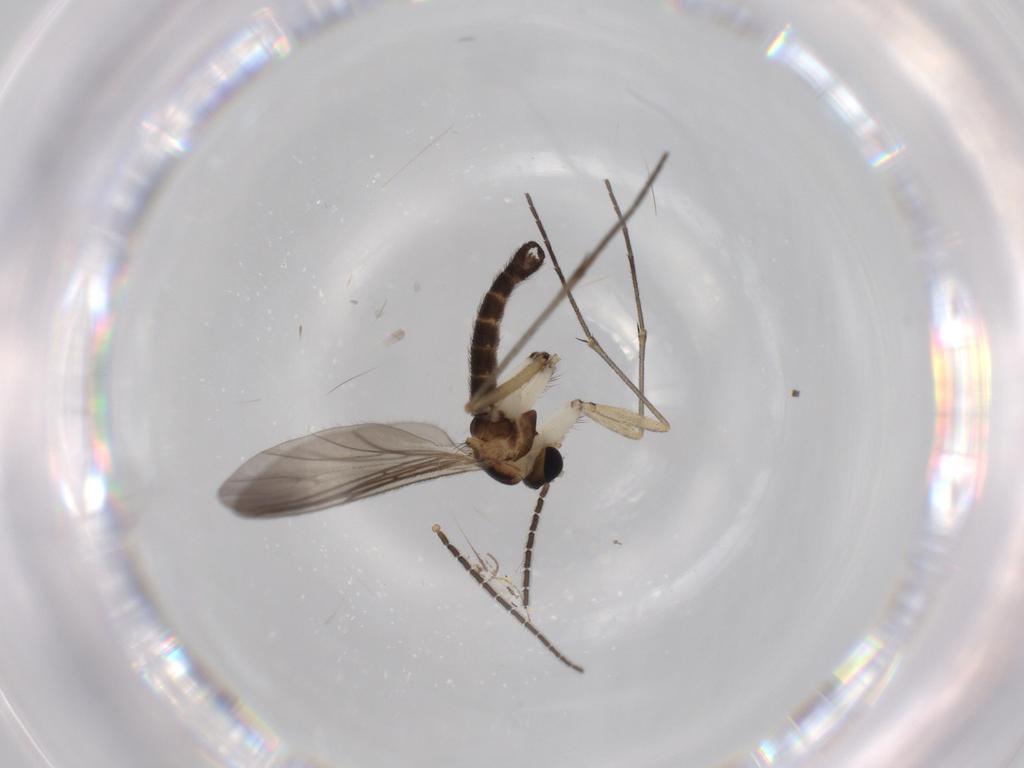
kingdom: Animalia
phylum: Arthropoda
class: Insecta
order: Diptera
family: Sciaridae
